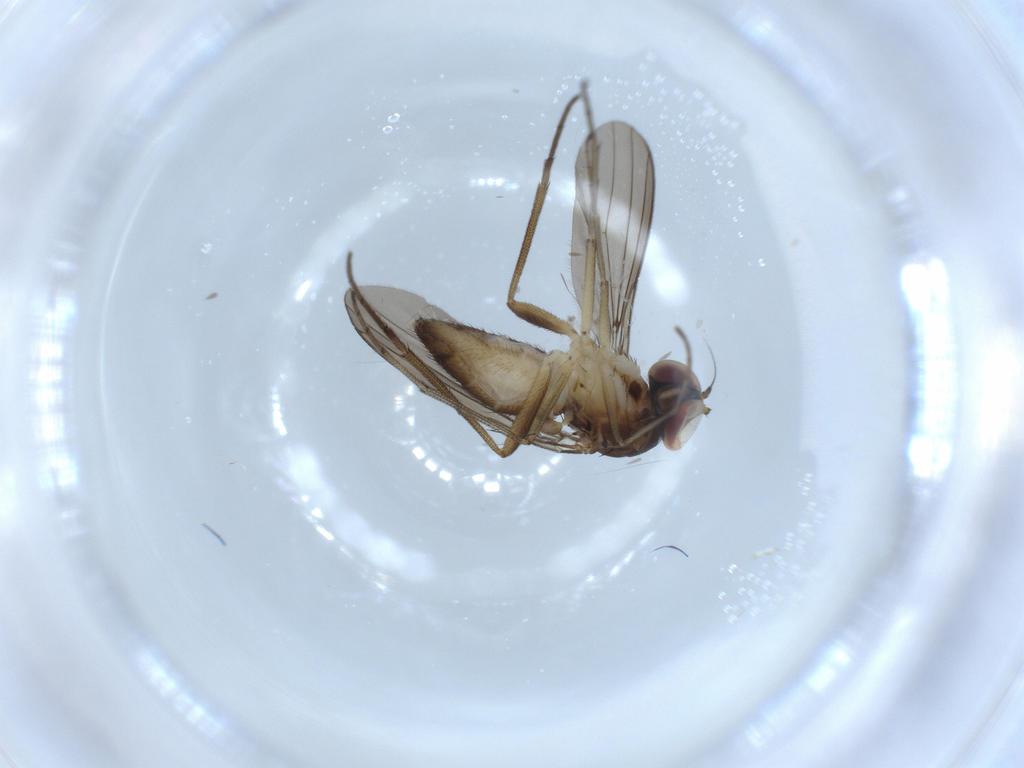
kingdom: Animalia
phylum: Arthropoda
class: Insecta
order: Diptera
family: Dolichopodidae
